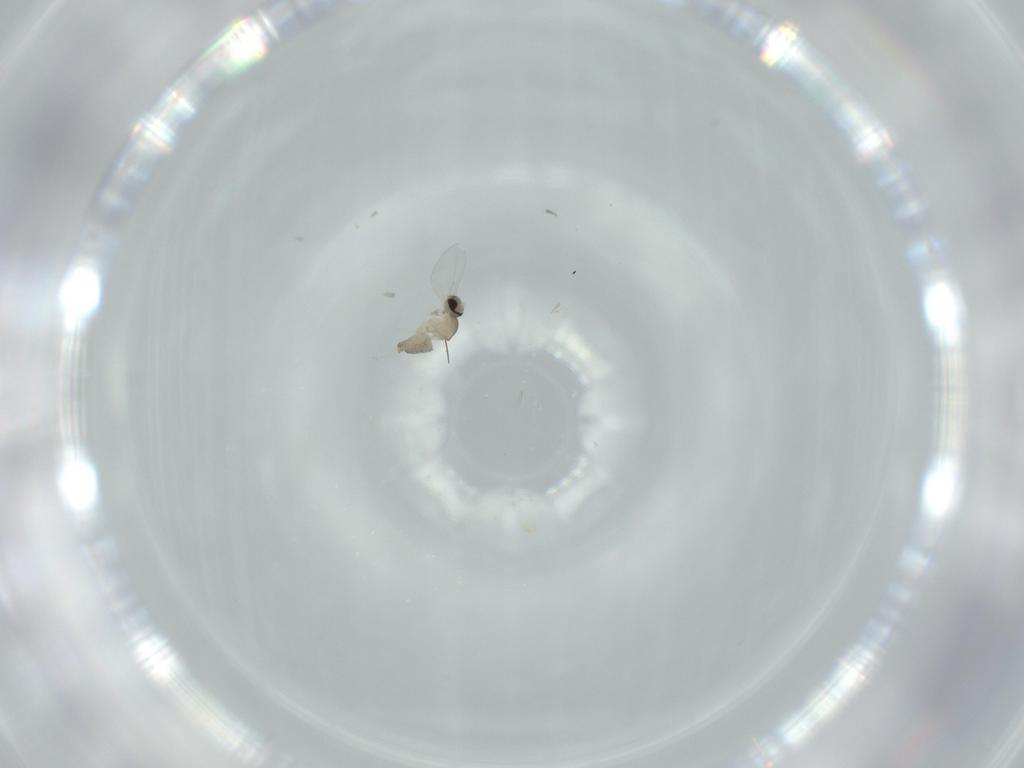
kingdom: Animalia
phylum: Arthropoda
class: Insecta
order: Diptera
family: Cecidomyiidae
